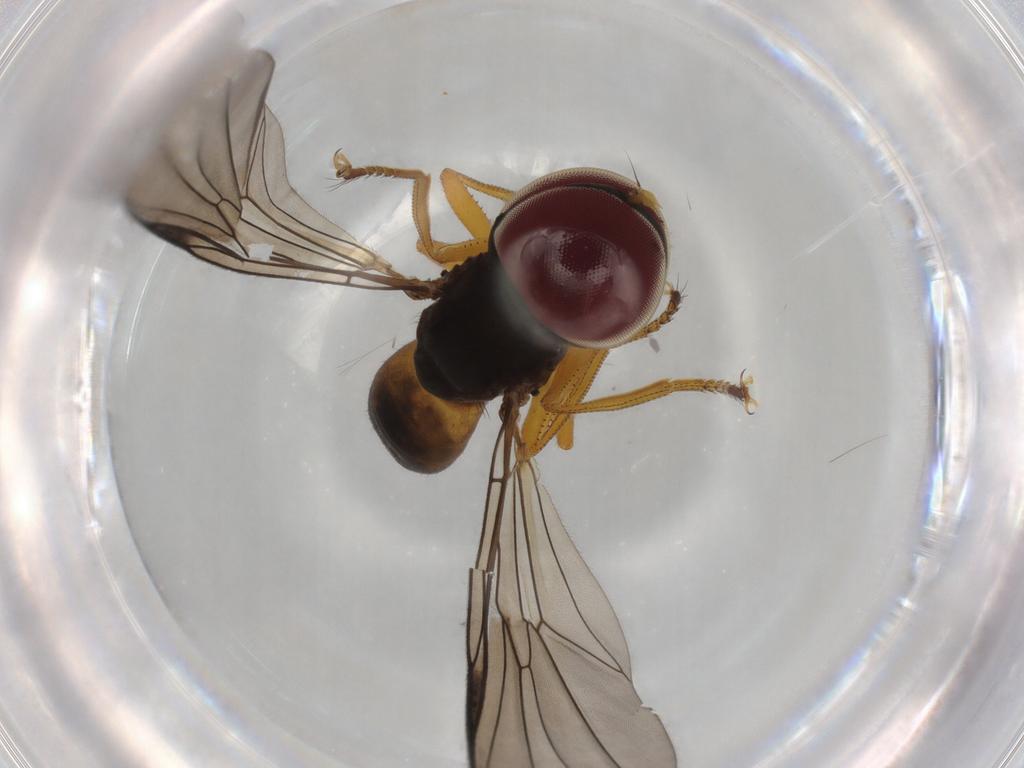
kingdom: Animalia
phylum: Arthropoda
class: Insecta
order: Diptera
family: Pipunculidae
